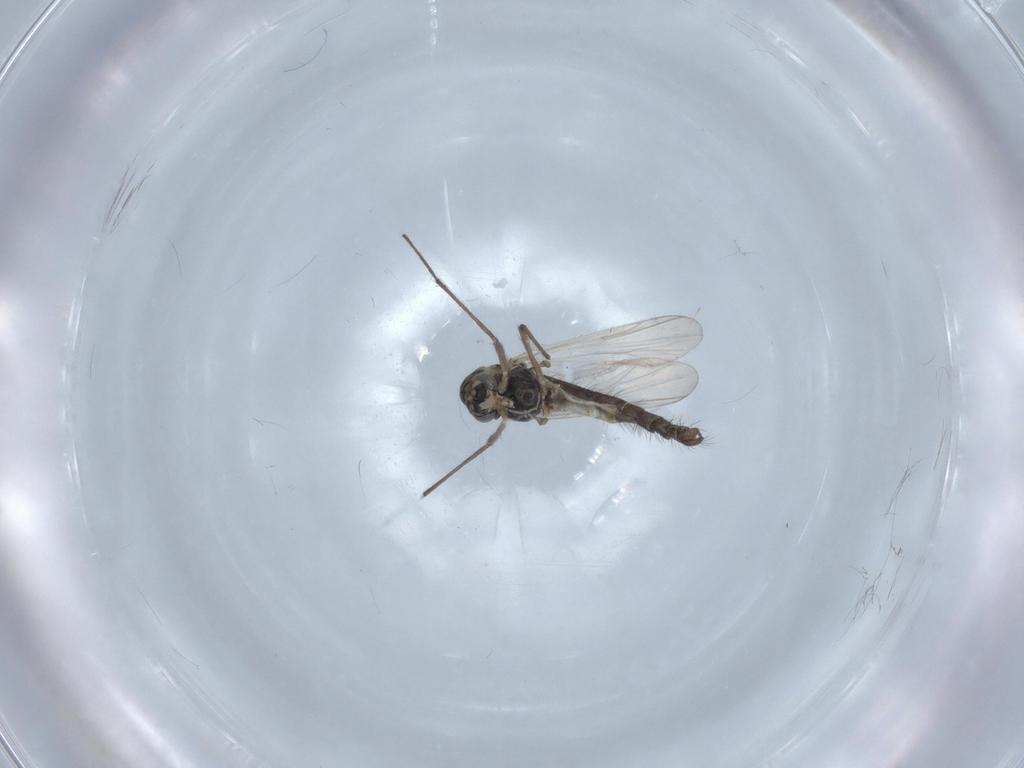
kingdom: Animalia
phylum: Arthropoda
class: Insecta
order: Diptera
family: Chironomidae
